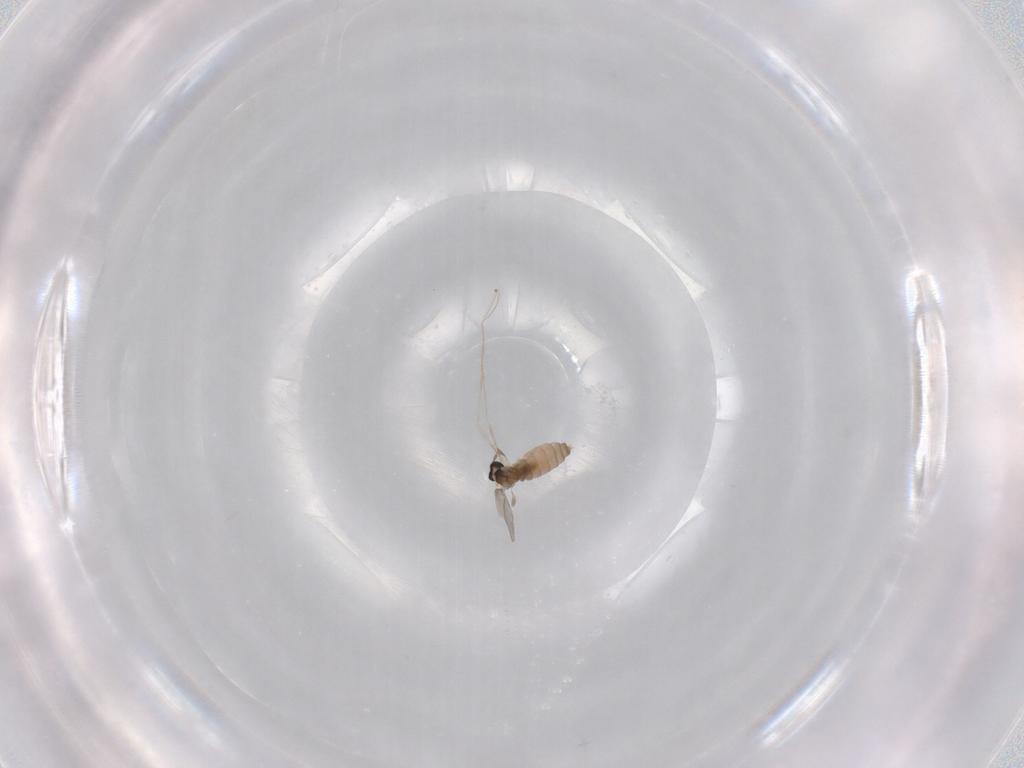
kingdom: Animalia
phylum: Arthropoda
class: Insecta
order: Diptera
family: Cecidomyiidae
